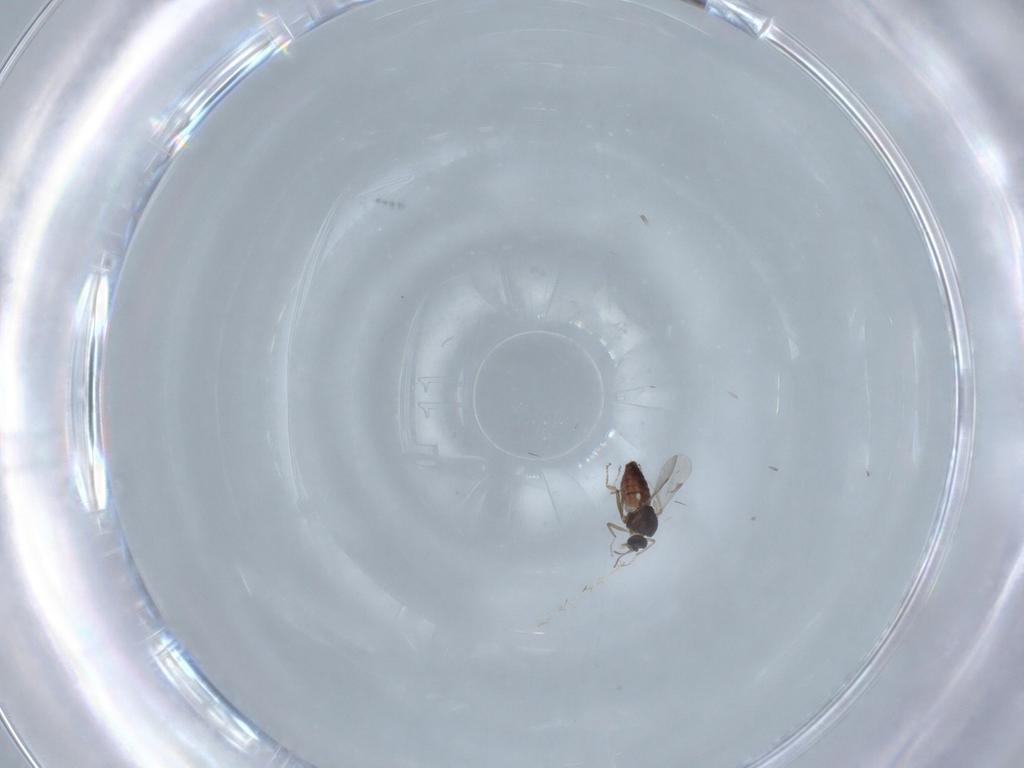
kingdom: Animalia
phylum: Arthropoda
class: Insecta
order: Diptera
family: Ceratopogonidae
